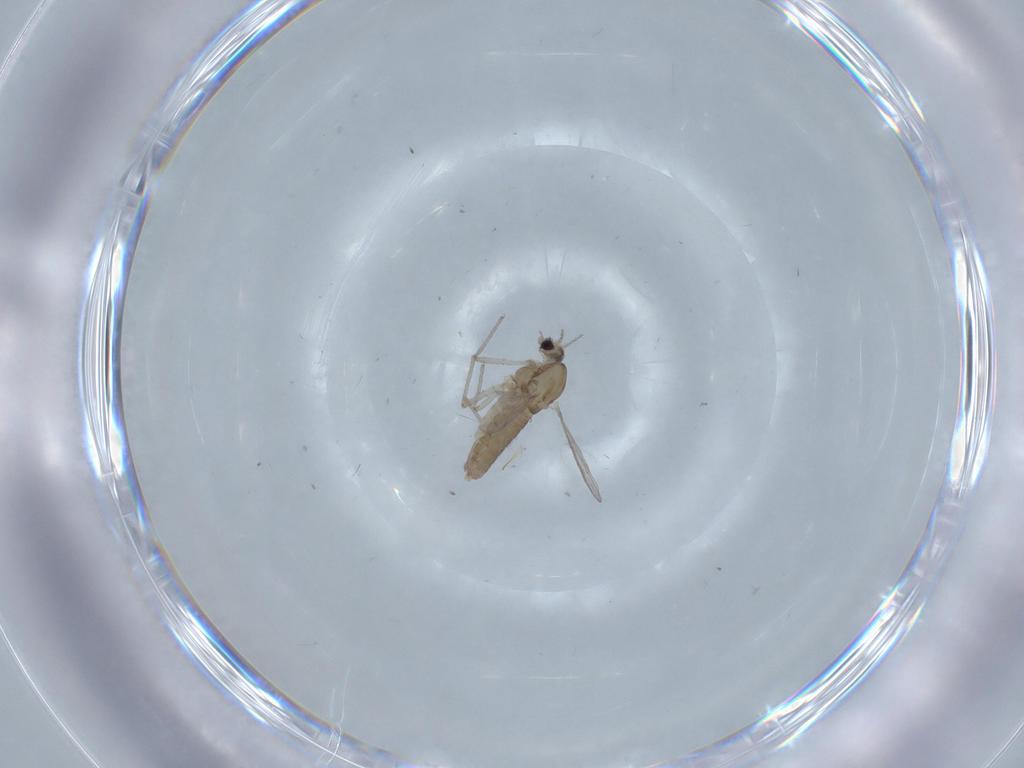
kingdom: Animalia
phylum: Arthropoda
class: Insecta
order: Diptera
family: Chironomidae
